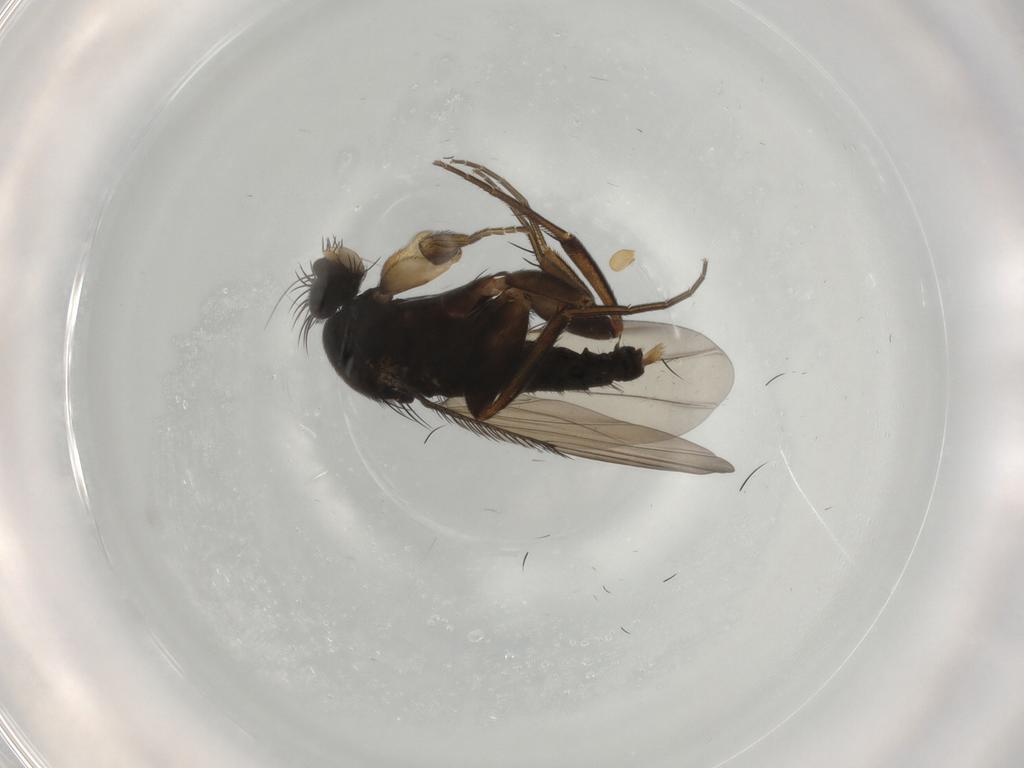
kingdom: Animalia
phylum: Arthropoda
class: Insecta
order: Diptera
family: Phoridae
